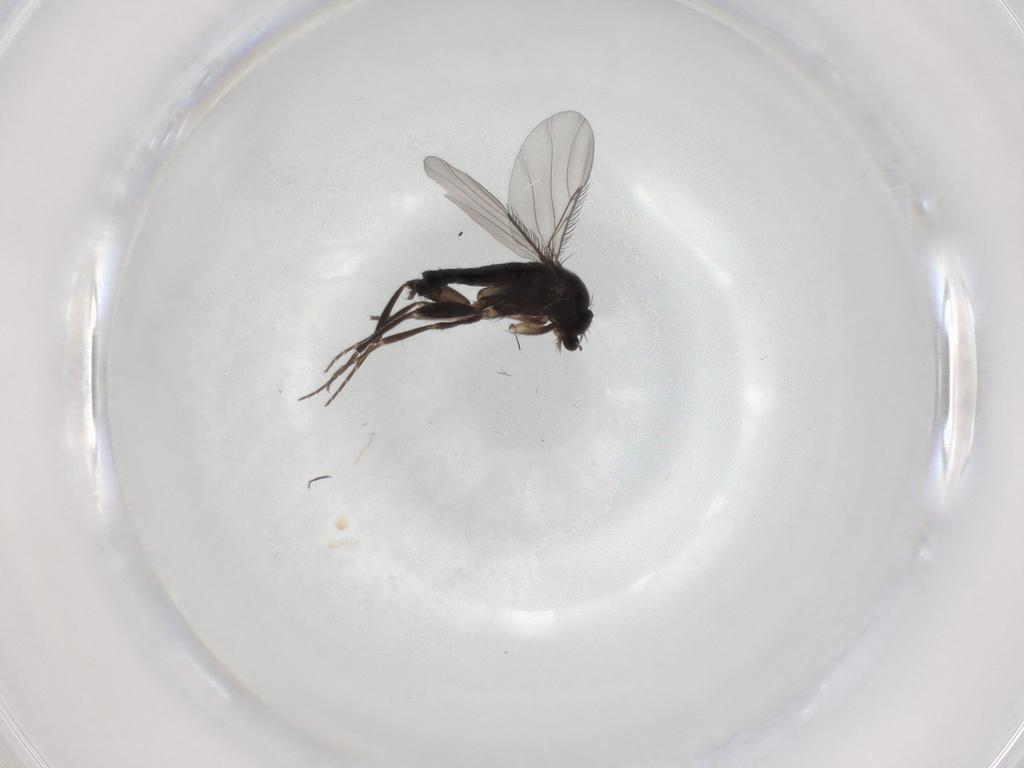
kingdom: Animalia
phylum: Arthropoda
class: Insecta
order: Diptera
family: Phoridae
